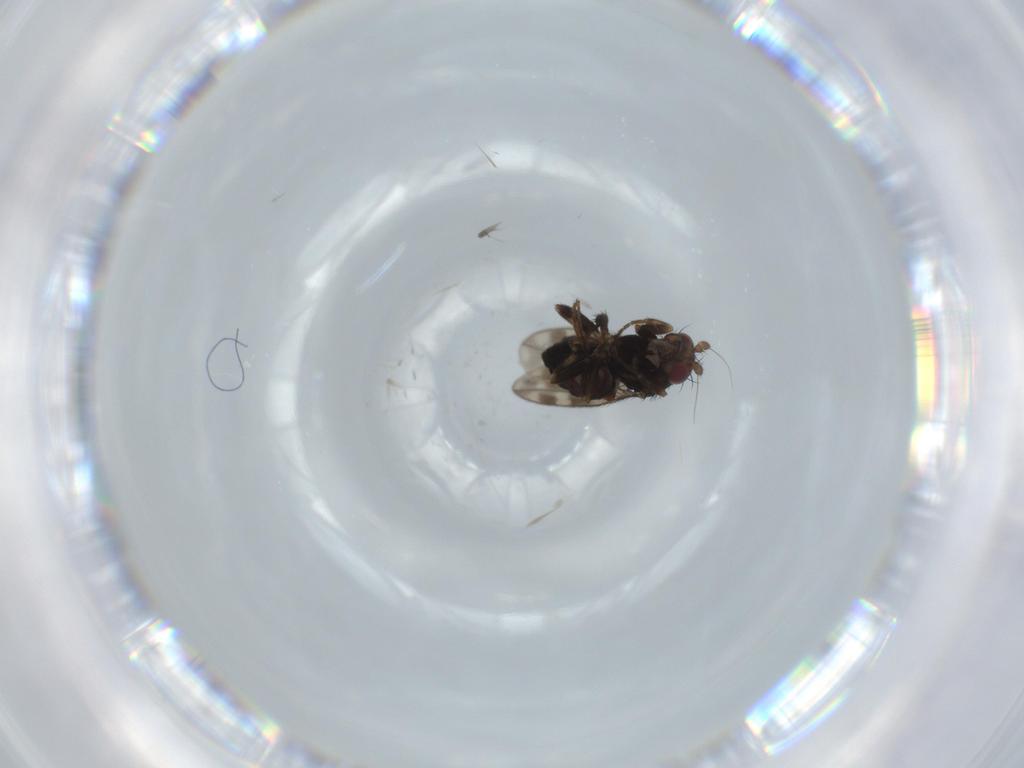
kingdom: Animalia
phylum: Arthropoda
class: Insecta
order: Diptera
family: Sphaeroceridae
